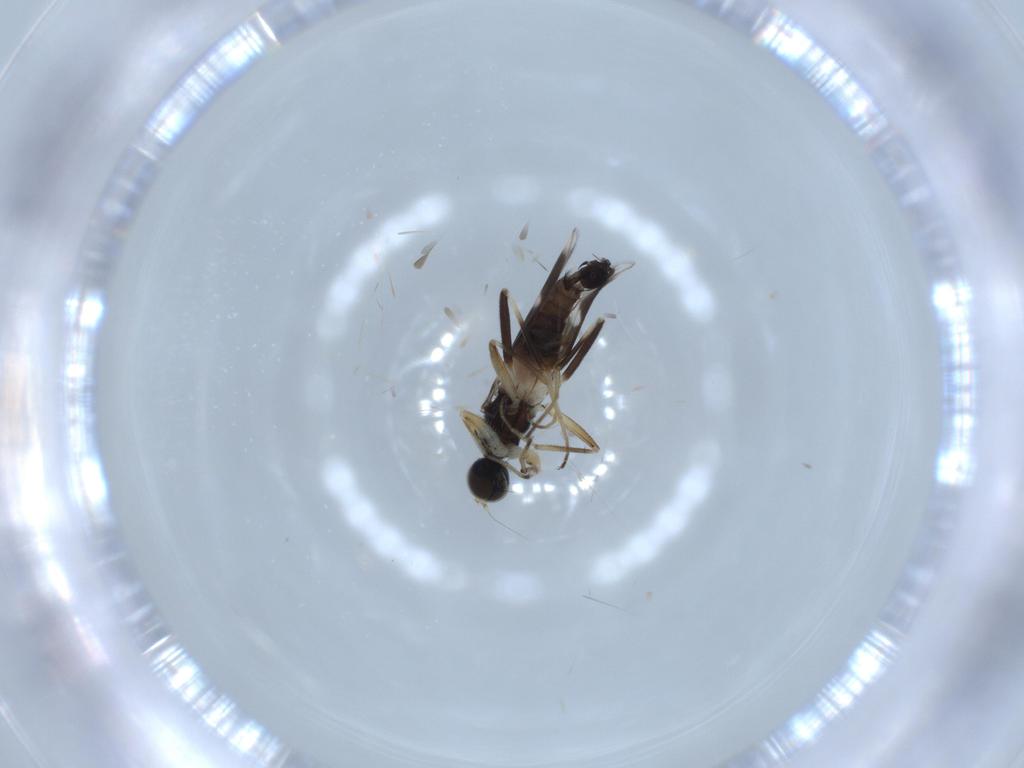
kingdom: Animalia
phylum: Arthropoda
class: Insecta
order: Diptera
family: Hybotidae
